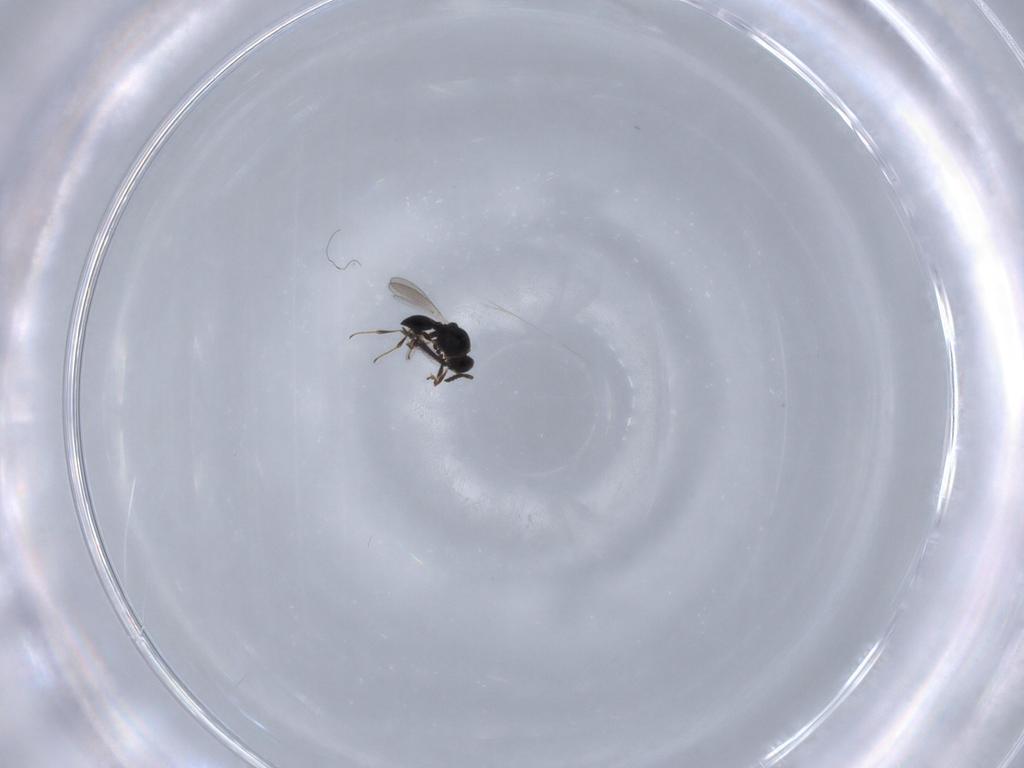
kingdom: Animalia
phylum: Arthropoda
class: Insecta
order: Hymenoptera
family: Platygastridae
